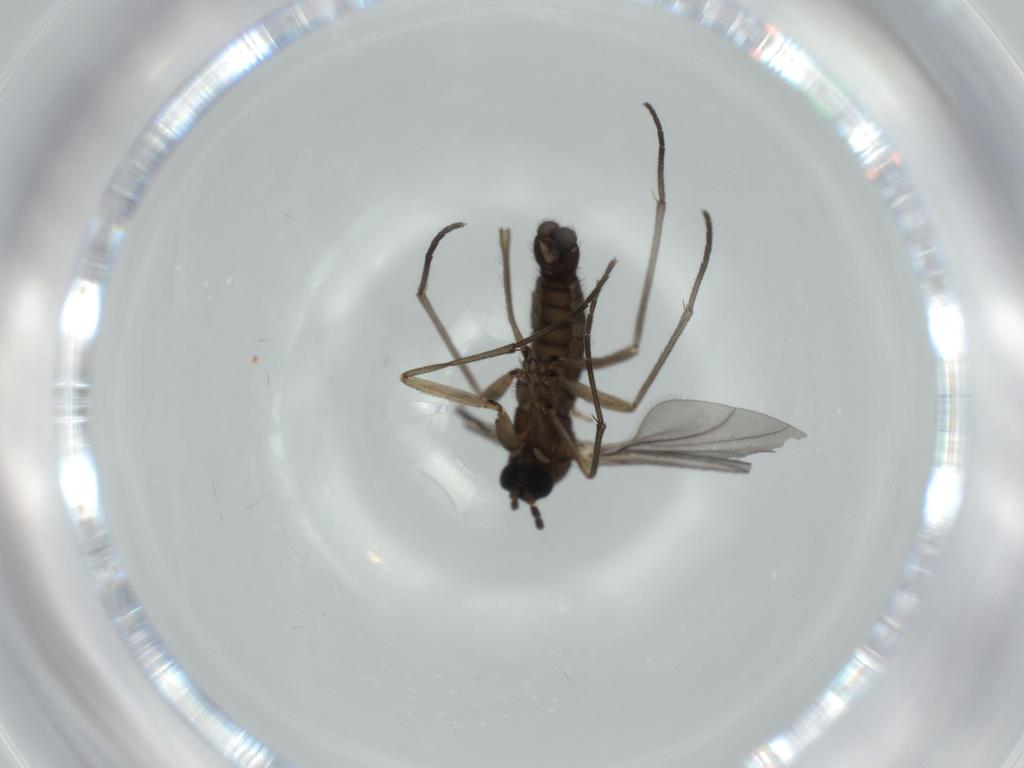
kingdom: Animalia
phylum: Arthropoda
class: Insecta
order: Diptera
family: Sciaridae
